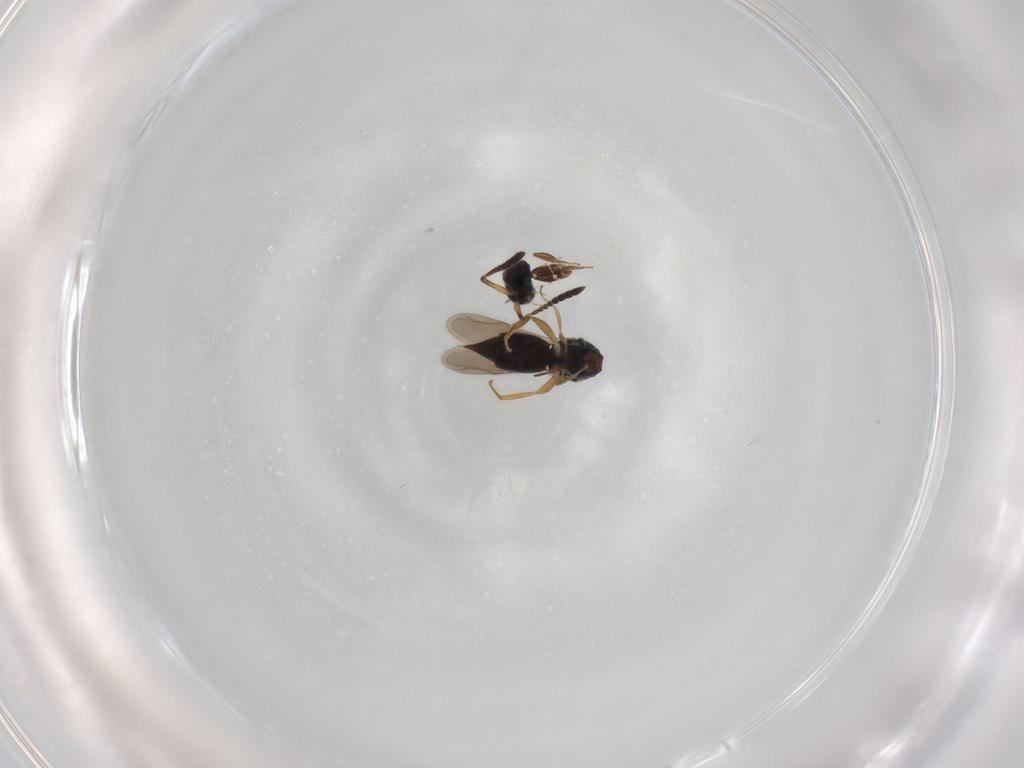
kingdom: Animalia
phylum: Arthropoda
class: Insecta
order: Hymenoptera
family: Ceraphronidae
